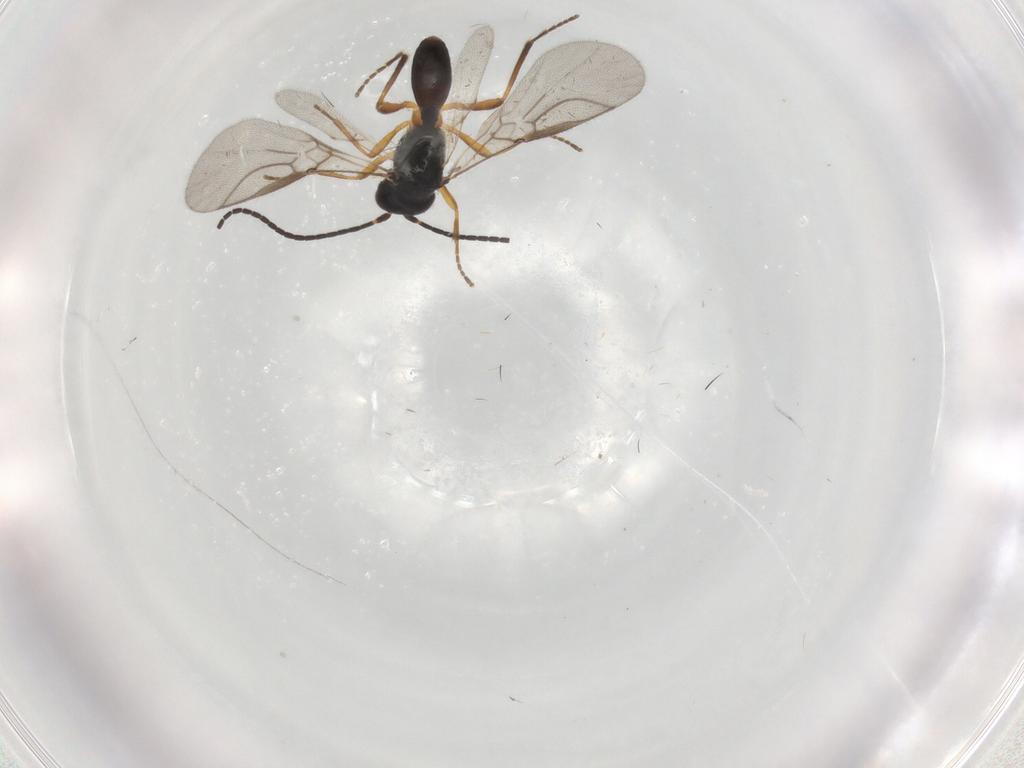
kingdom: Animalia
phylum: Arthropoda
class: Insecta
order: Hymenoptera
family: Braconidae
